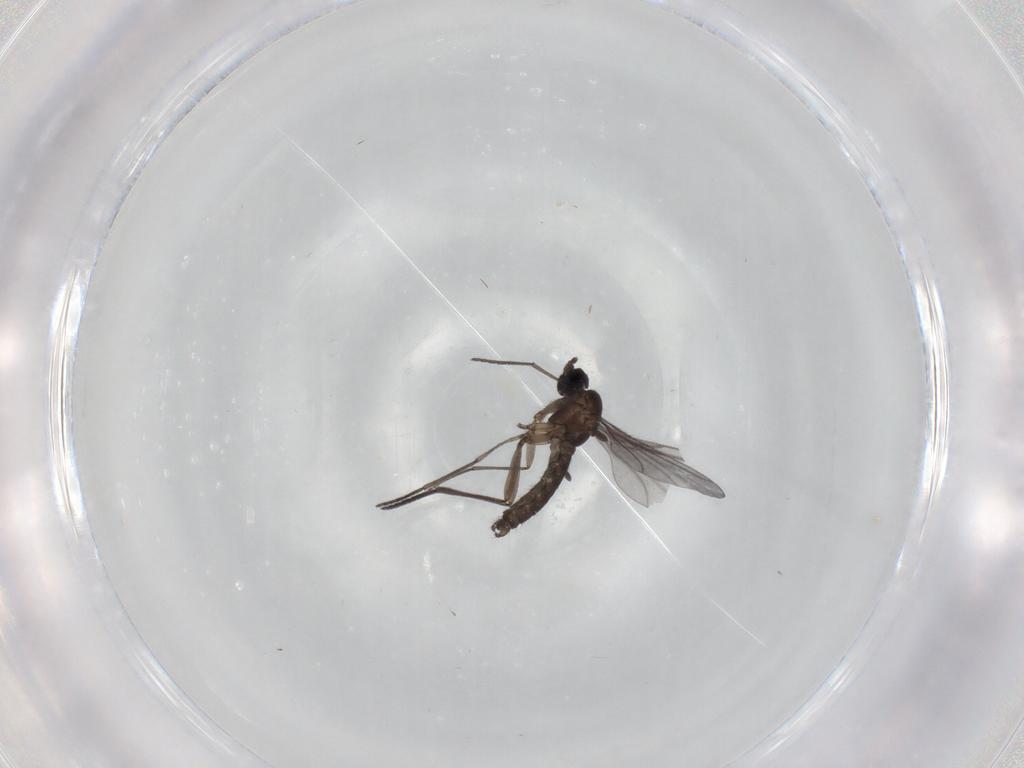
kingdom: Animalia
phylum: Arthropoda
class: Insecta
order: Diptera
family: Sciaridae
